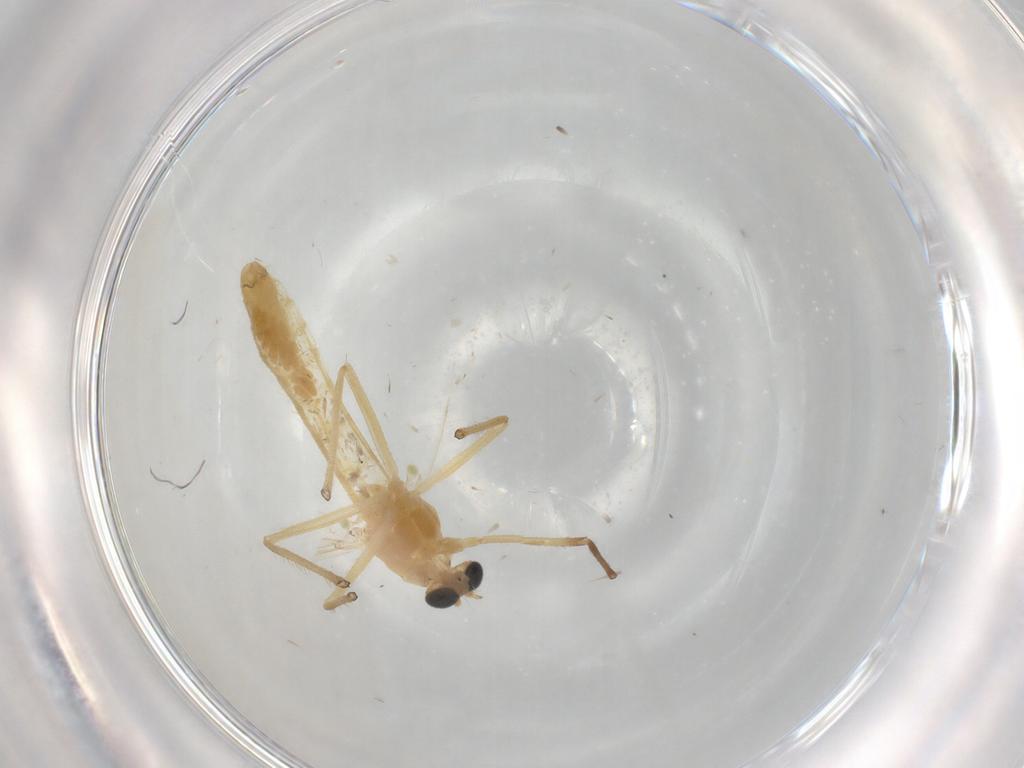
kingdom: Animalia
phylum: Arthropoda
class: Insecta
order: Diptera
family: Chironomidae
